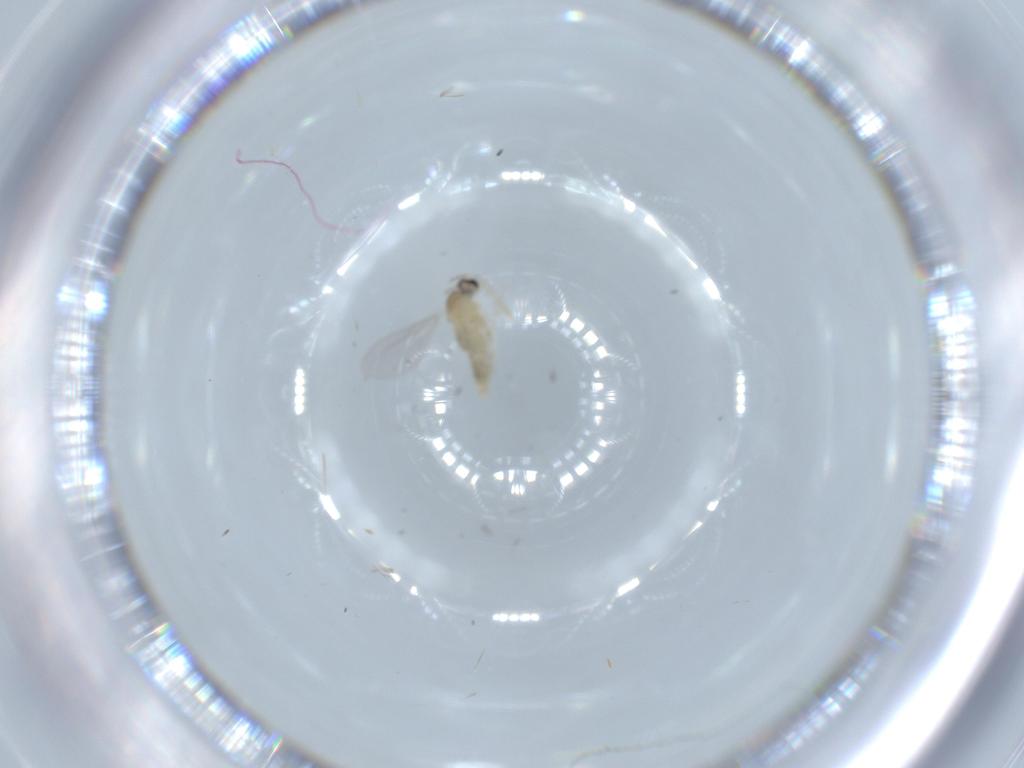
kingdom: Animalia
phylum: Arthropoda
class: Insecta
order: Diptera
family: Cecidomyiidae
